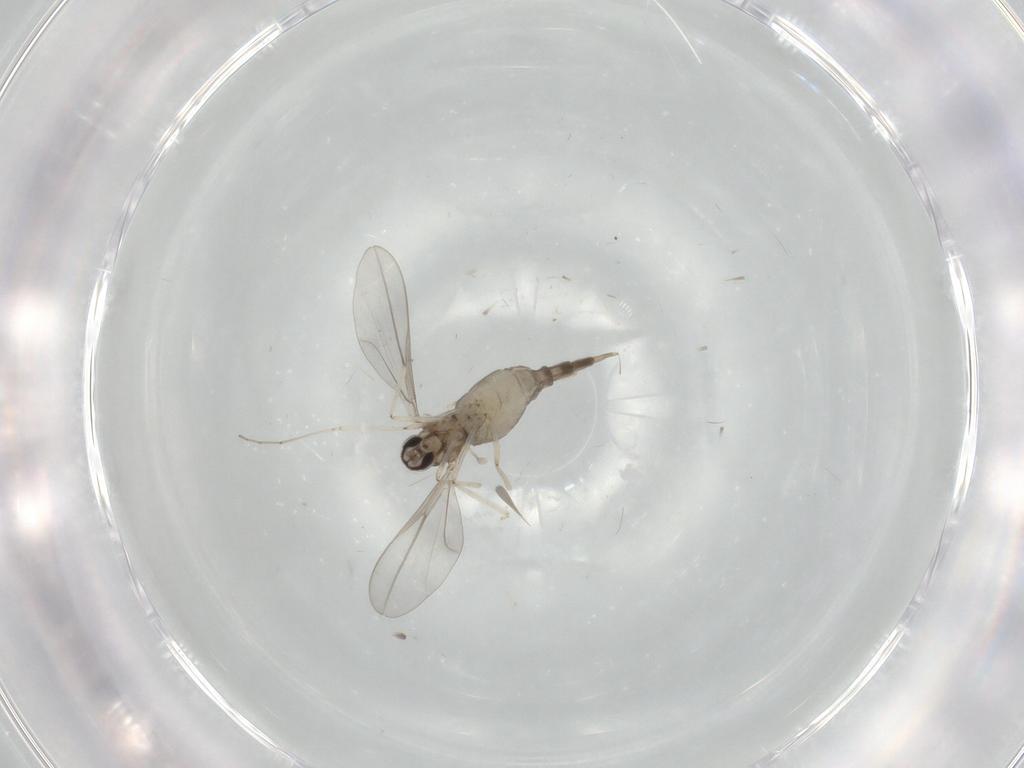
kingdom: Animalia
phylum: Arthropoda
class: Insecta
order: Diptera
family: Cecidomyiidae
